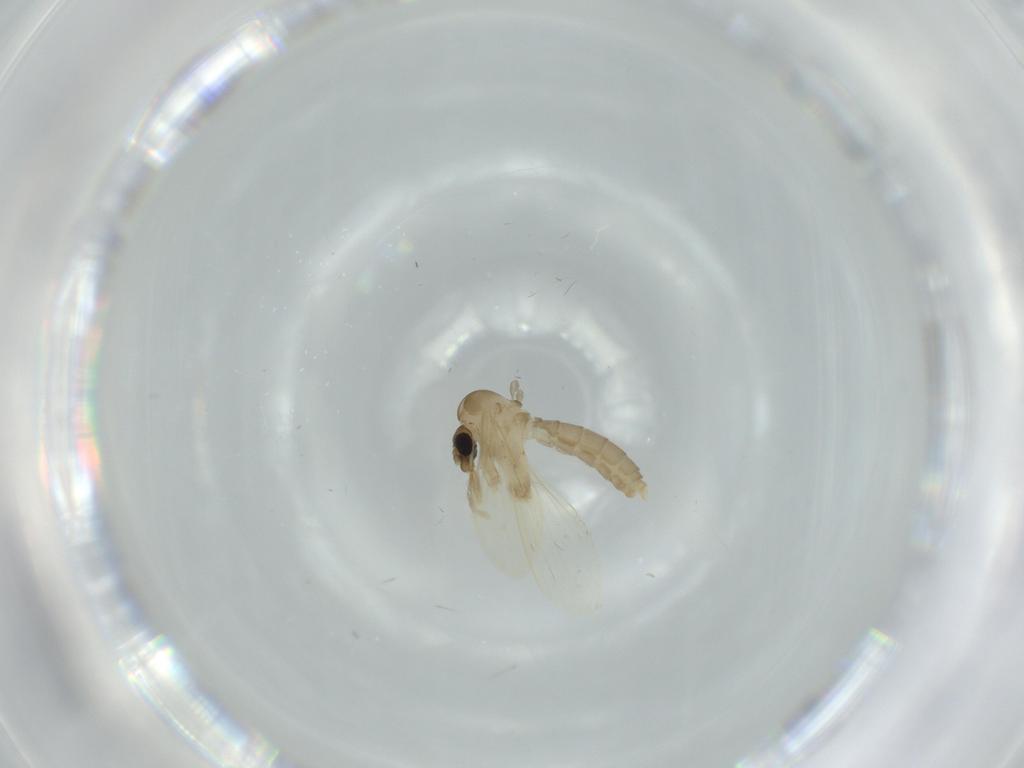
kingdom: Animalia
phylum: Arthropoda
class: Insecta
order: Diptera
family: Psychodidae
